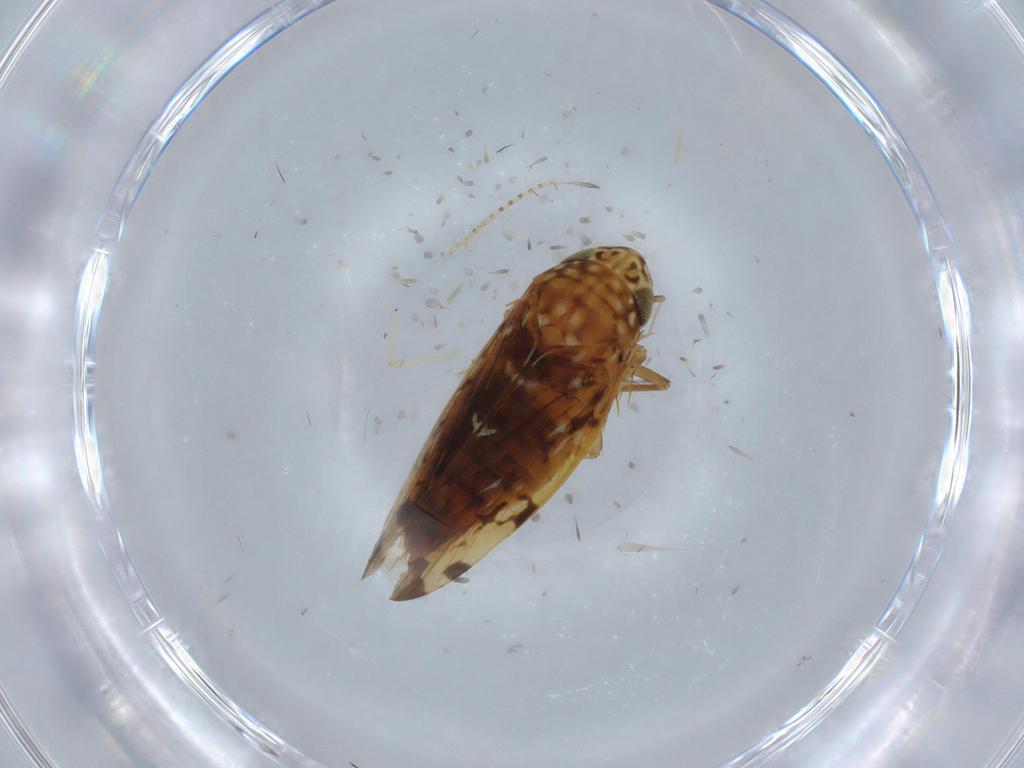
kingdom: Animalia
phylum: Arthropoda
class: Insecta
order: Hemiptera
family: Cicadellidae
